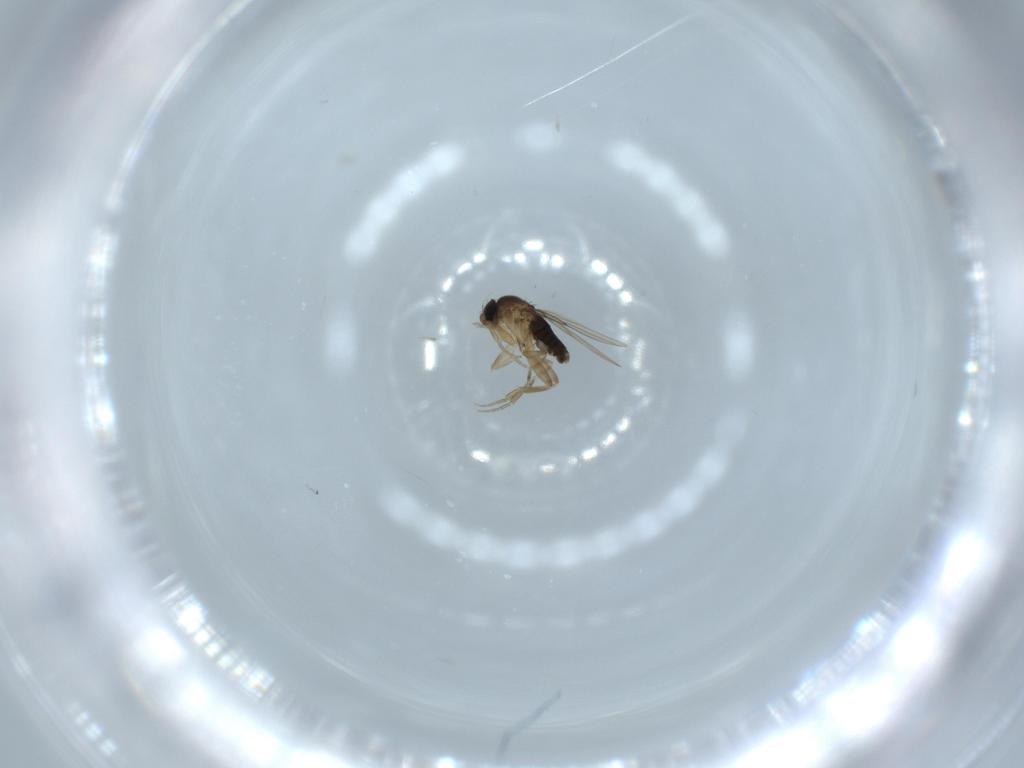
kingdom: Animalia
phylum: Arthropoda
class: Insecta
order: Diptera
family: Phoridae
